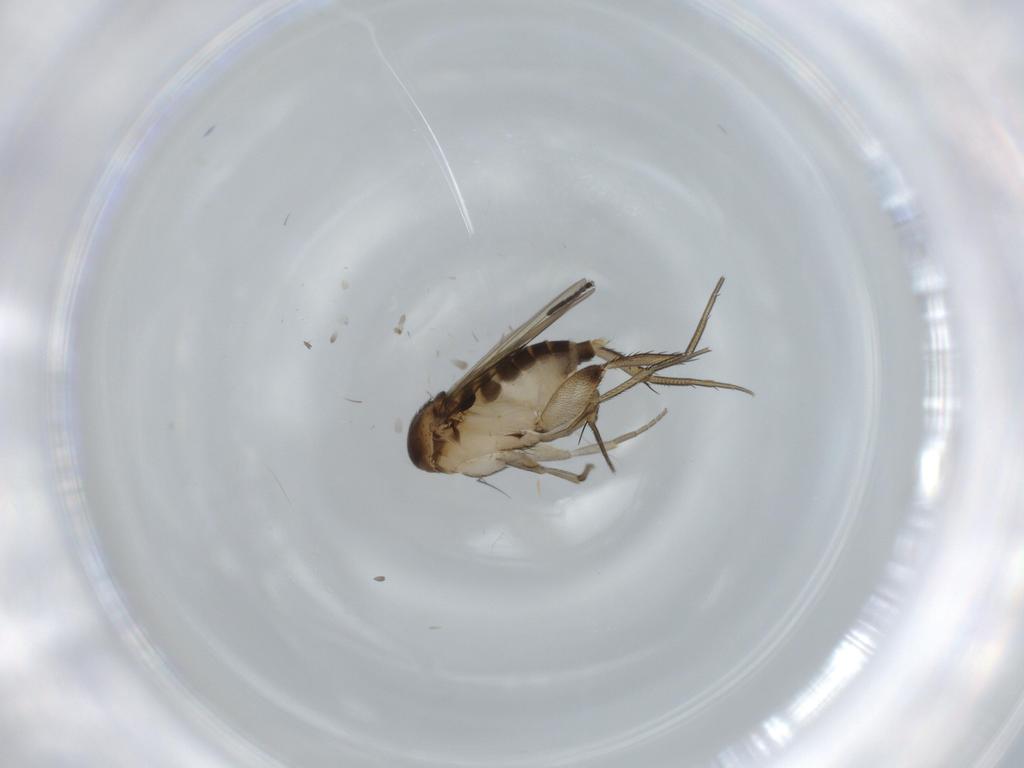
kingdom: Animalia
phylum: Arthropoda
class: Insecta
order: Diptera
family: Phoridae
